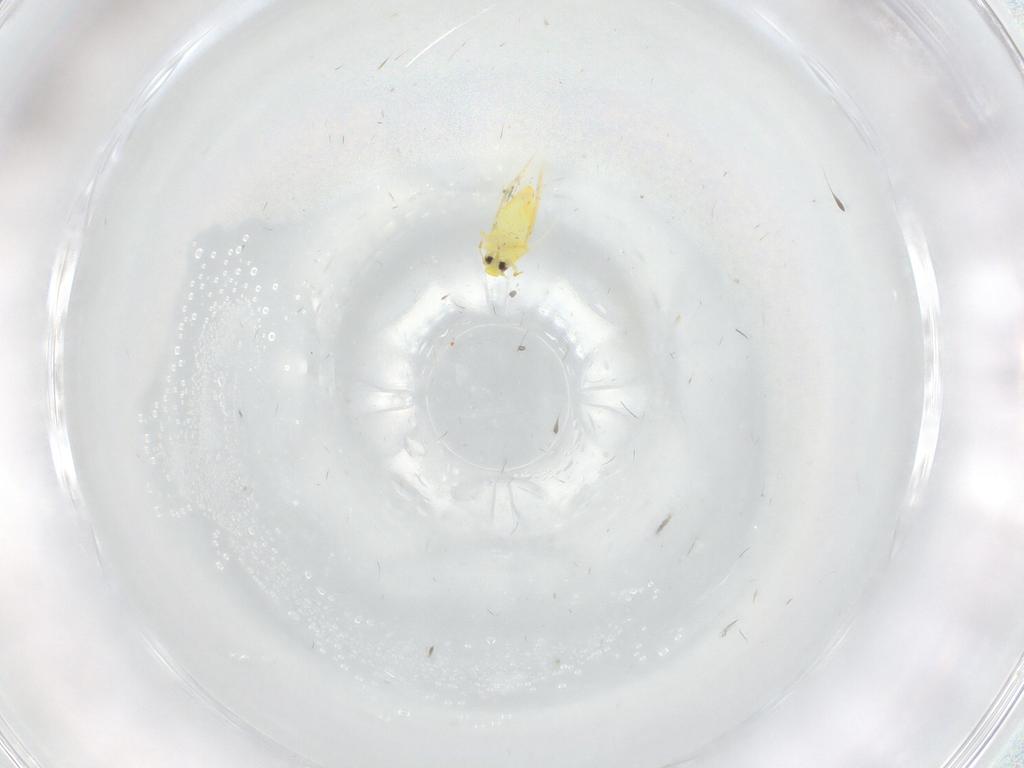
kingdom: Animalia
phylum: Arthropoda
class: Insecta
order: Hemiptera
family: Aleyrodidae
